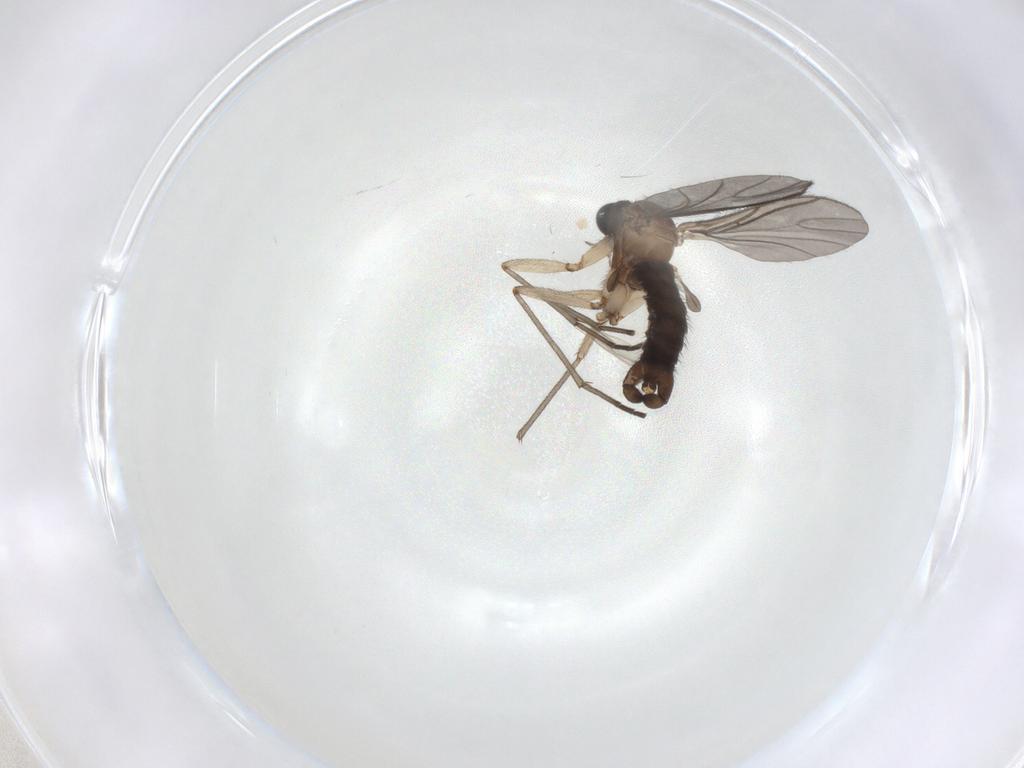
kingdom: Animalia
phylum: Arthropoda
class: Insecta
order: Diptera
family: Sciaridae
